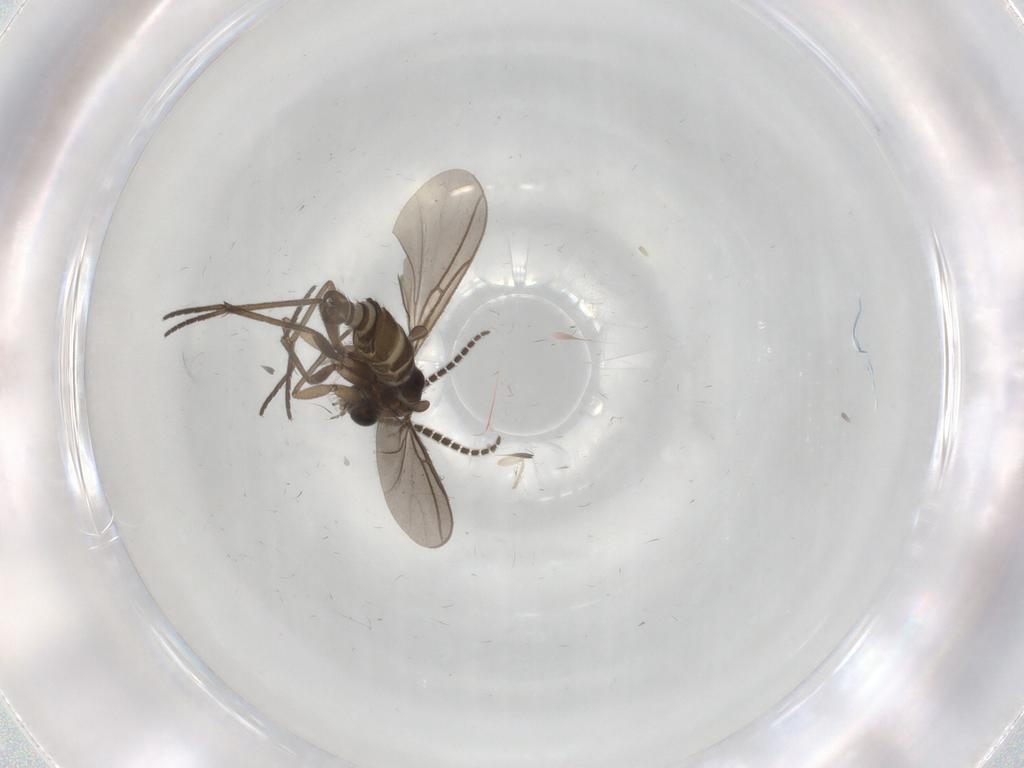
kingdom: Animalia
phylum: Arthropoda
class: Insecta
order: Diptera
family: Sciaridae
